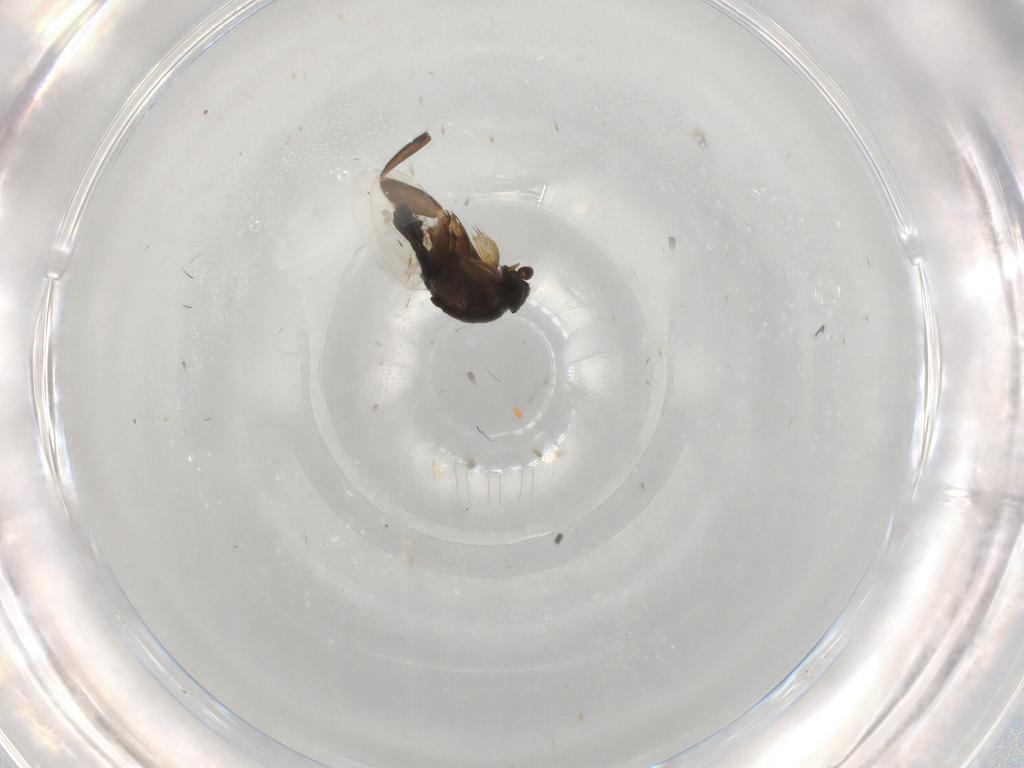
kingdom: Animalia
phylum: Arthropoda
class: Insecta
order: Diptera
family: Phoridae
